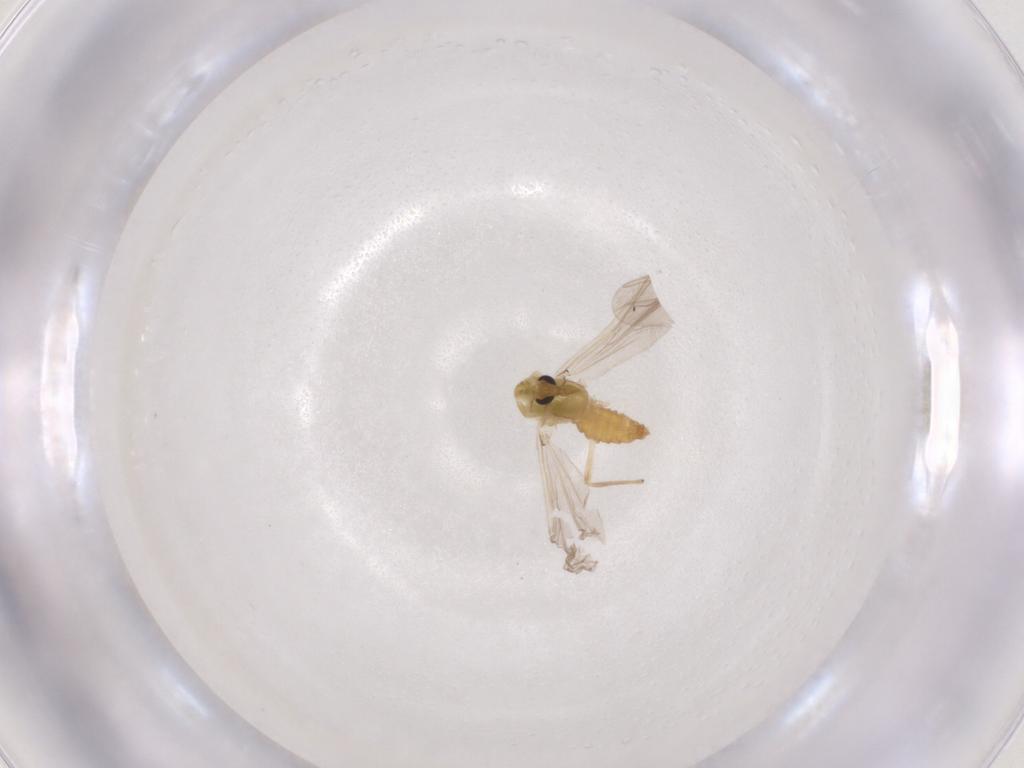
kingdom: Animalia
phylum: Arthropoda
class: Insecta
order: Diptera
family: Chironomidae
